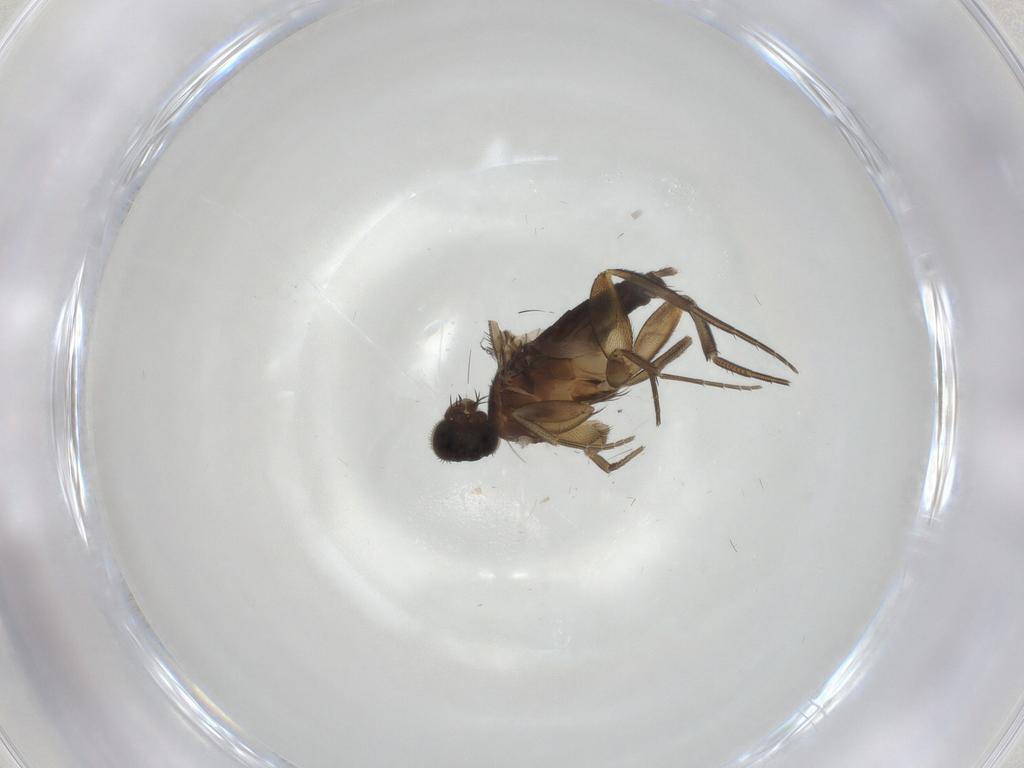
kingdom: Animalia
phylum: Arthropoda
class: Insecta
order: Diptera
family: Phoridae
